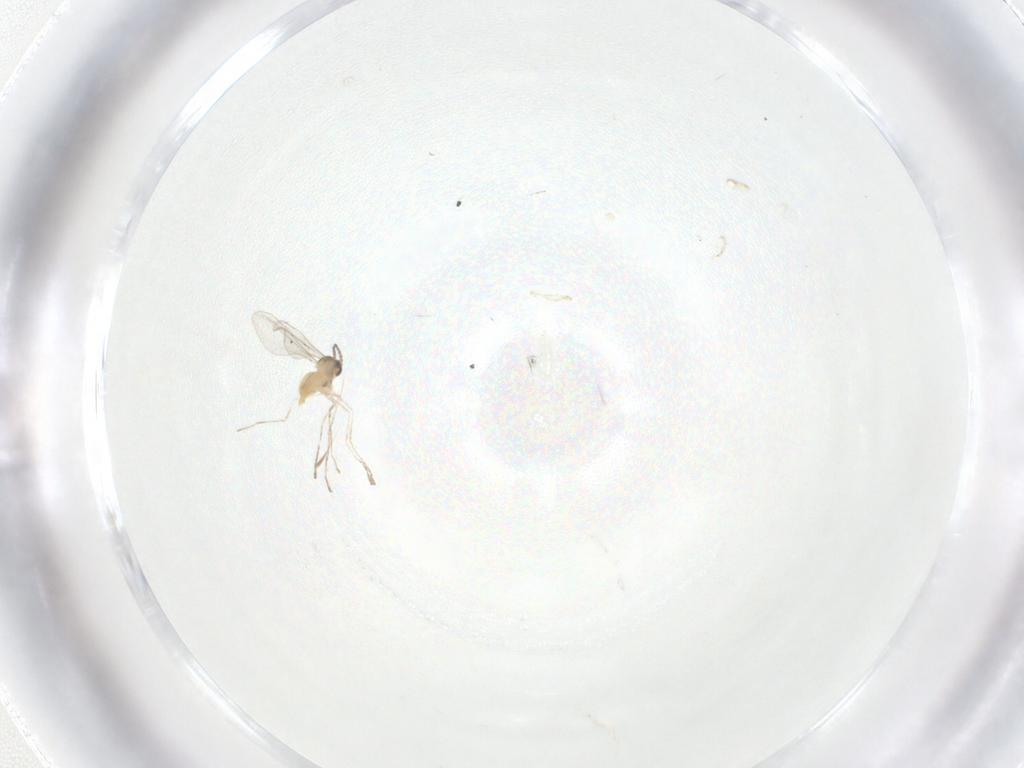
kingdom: Animalia
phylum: Arthropoda
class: Insecta
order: Diptera
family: Cecidomyiidae
